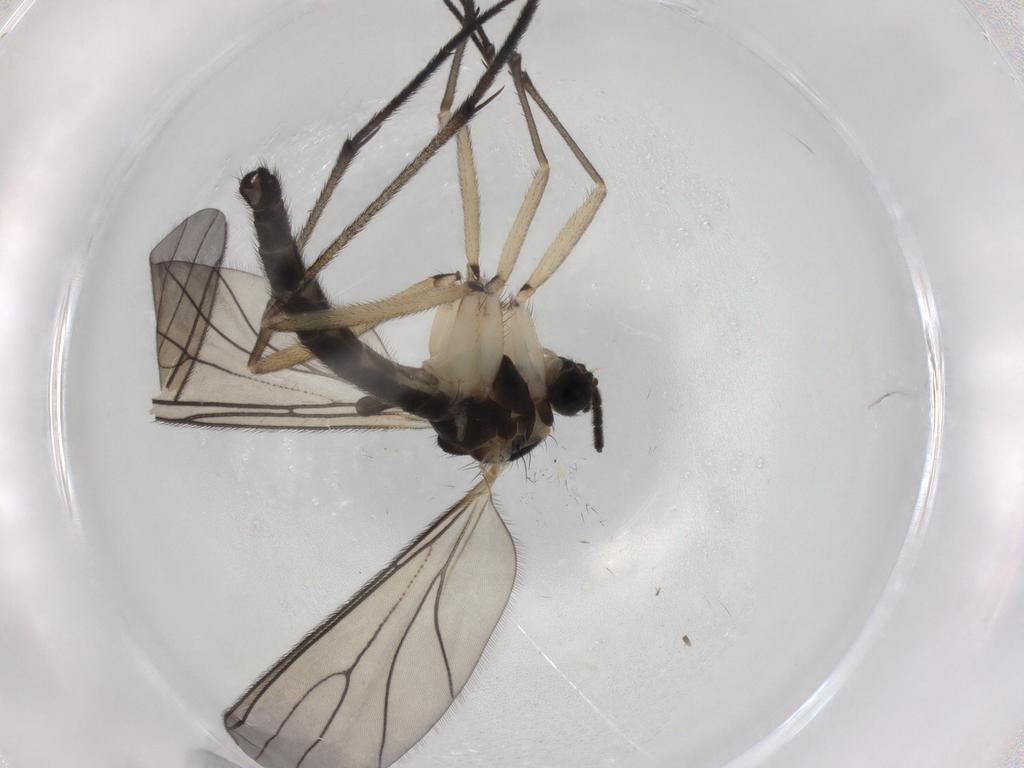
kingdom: Animalia
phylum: Arthropoda
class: Insecta
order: Diptera
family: Sciaridae
